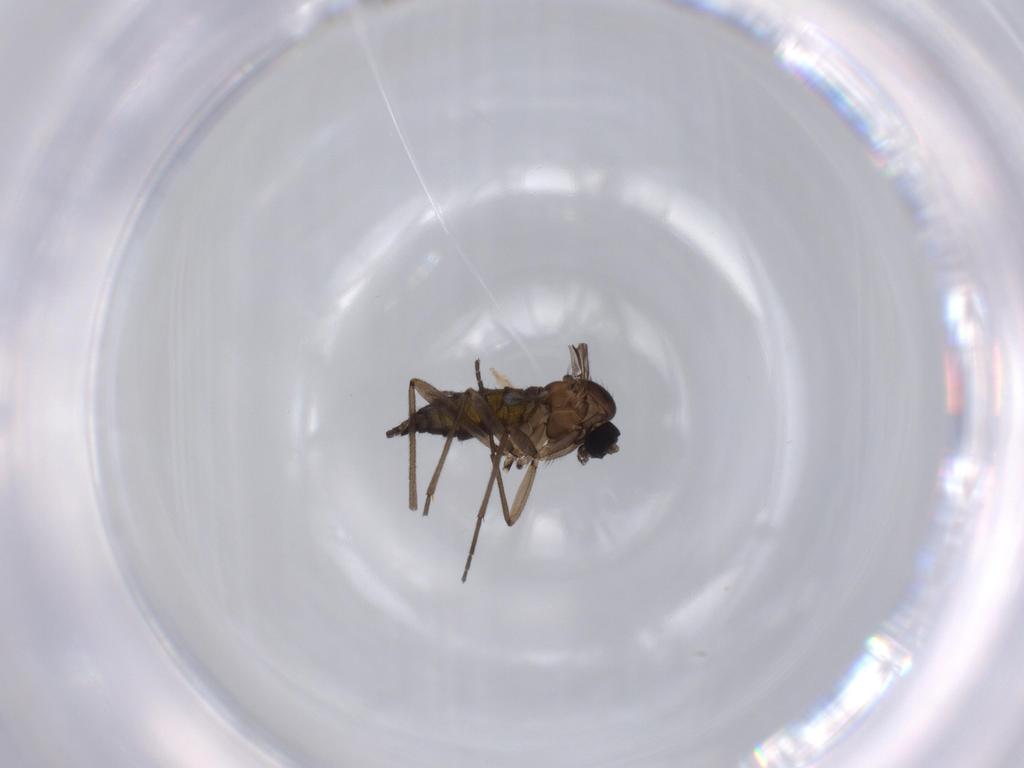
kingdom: Animalia
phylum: Arthropoda
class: Insecta
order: Diptera
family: Sciaridae
